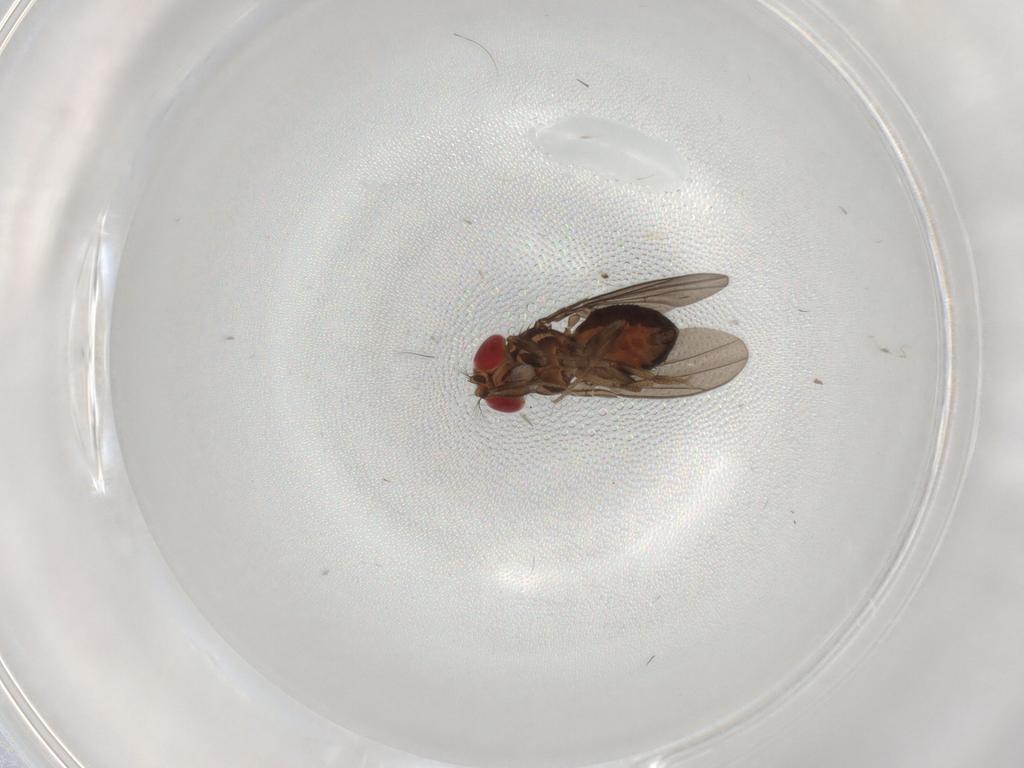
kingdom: Animalia
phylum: Arthropoda
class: Insecta
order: Diptera
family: Drosophilidae
